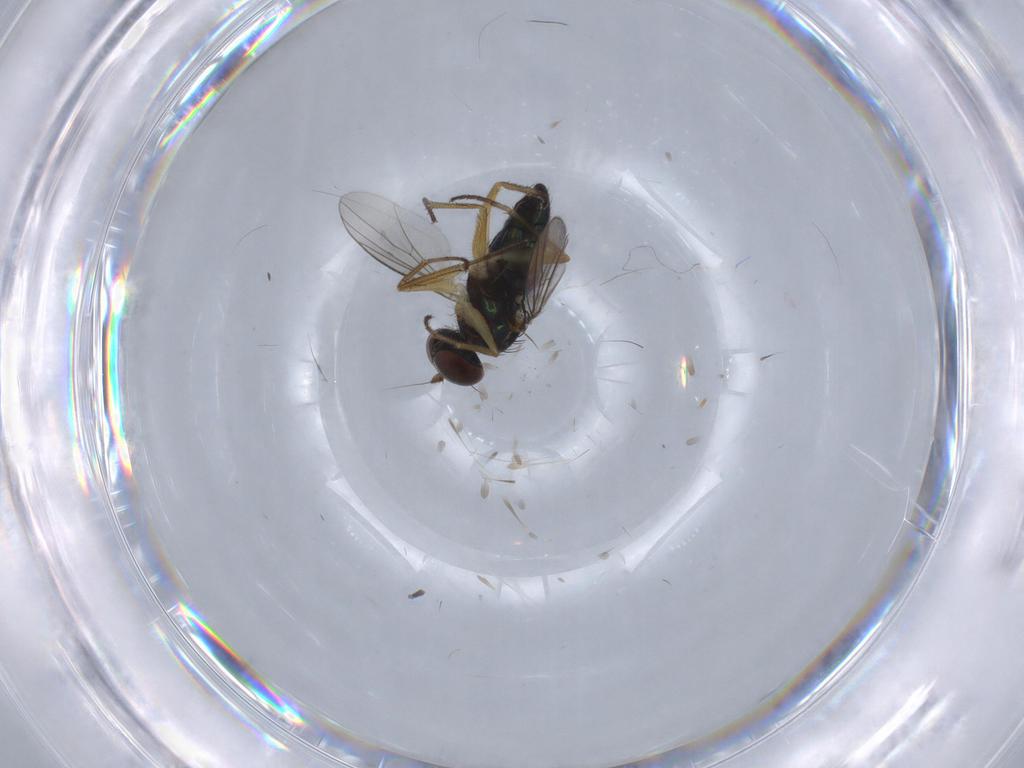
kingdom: Animalia
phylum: Arthropoda
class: Insecta
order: Diptera
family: Dolichopodidae
